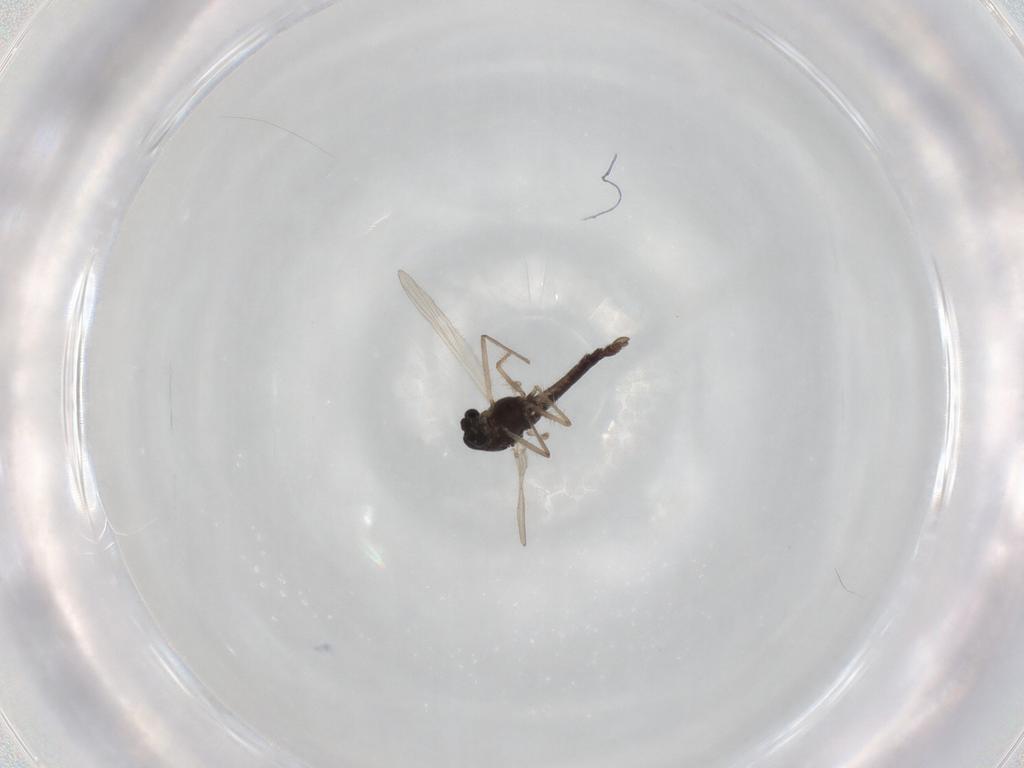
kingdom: Animalia
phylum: Arthropoda
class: Insecta
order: Diptera
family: Chironomidae
